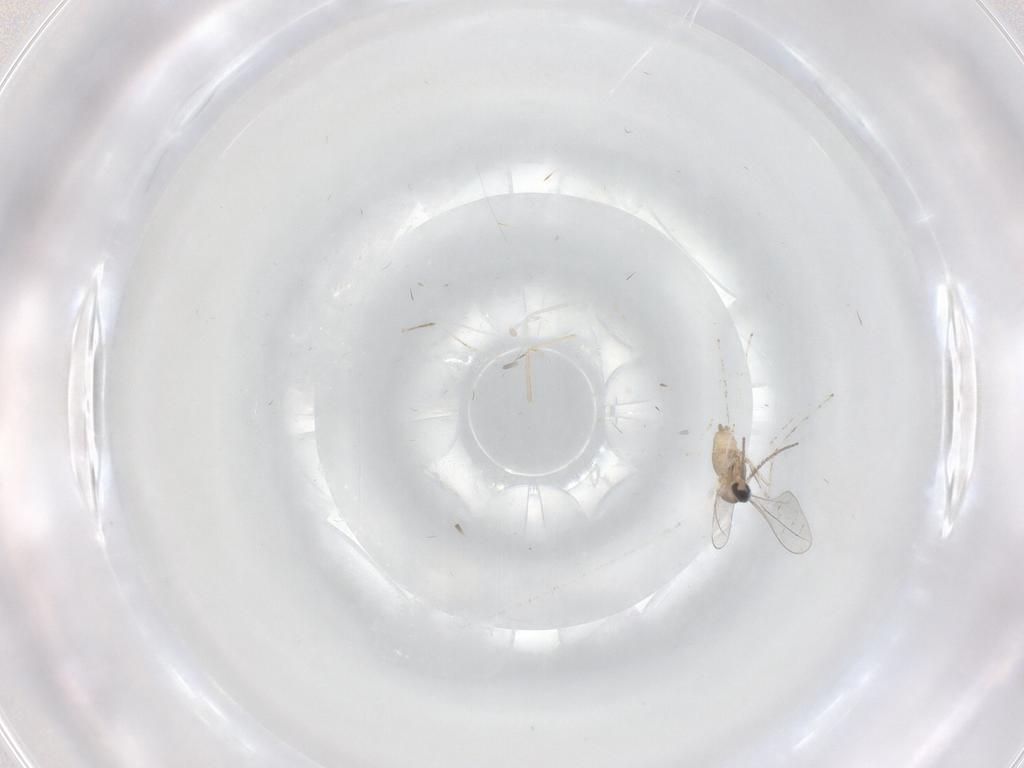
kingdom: Animalia
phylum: Arthropoda
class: Insecta
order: Diptera
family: Cecidomyiidae
